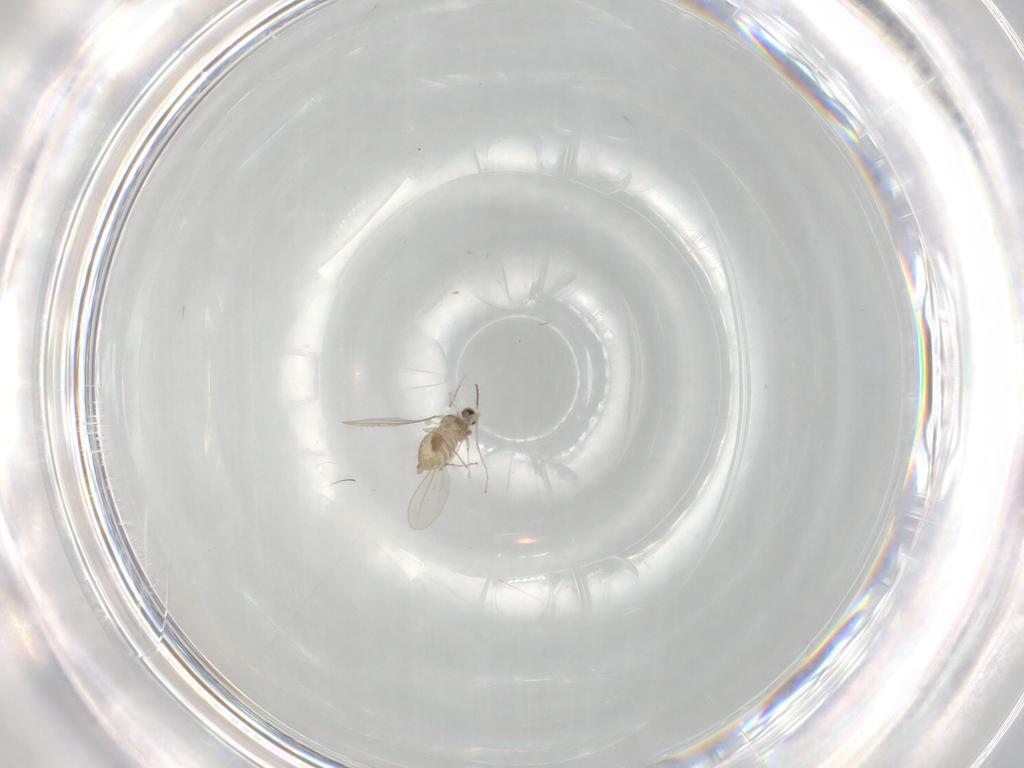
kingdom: Animalia
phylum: Arthropoda
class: Insecta
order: Diptera
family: Cecidomyiidae
